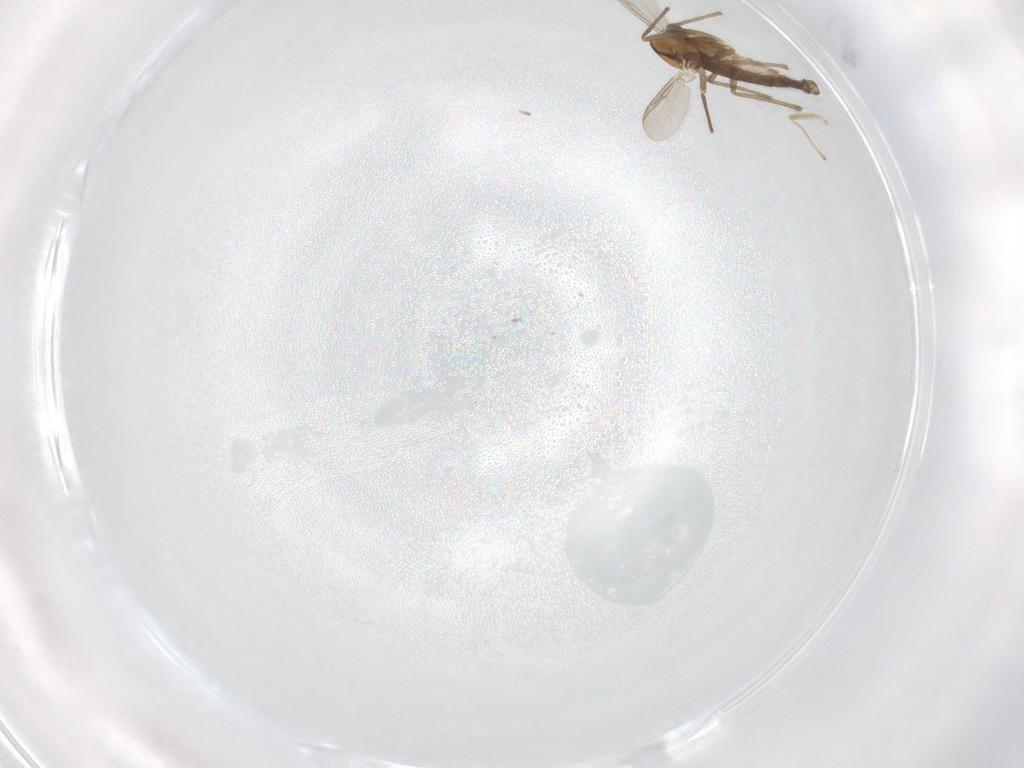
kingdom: Animalia
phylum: Arthropoda
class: Insecta
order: Diptera
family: Chironomidae
